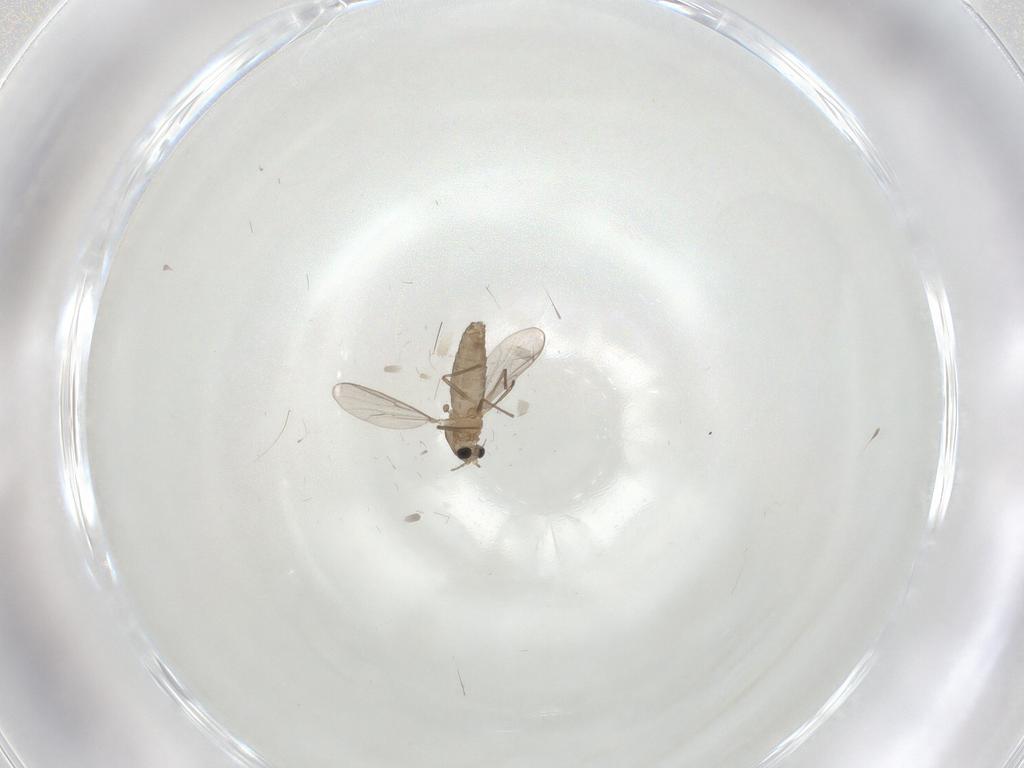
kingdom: Animalia
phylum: Arthropoda
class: Insecta
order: Diptera
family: Chironomidae
